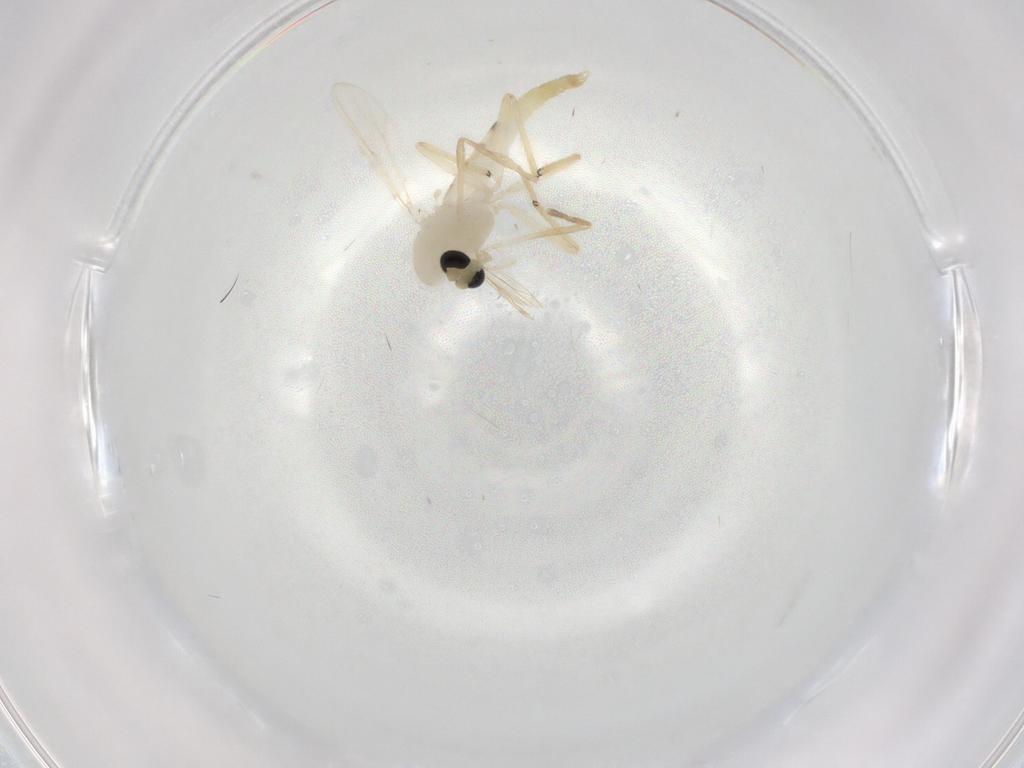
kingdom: Animalia
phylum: Arthropoda
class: Insecta
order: Diptera
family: Chironomidae
